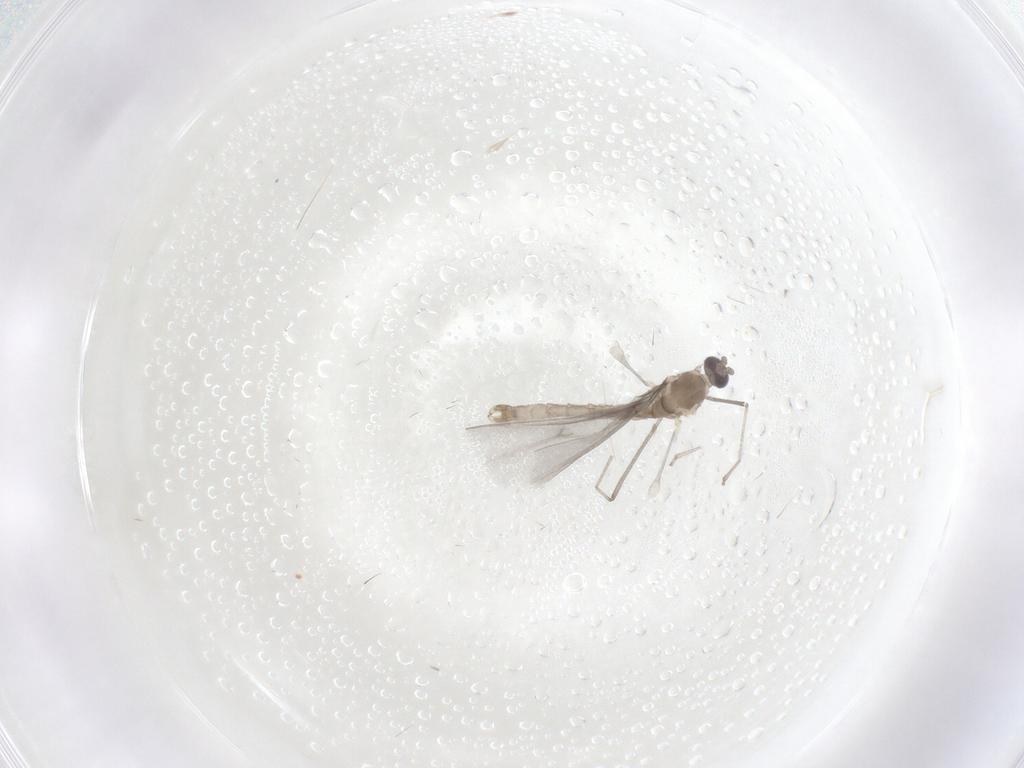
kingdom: Animalia
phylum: Arthropoda
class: Insecta
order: Diptera
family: Cecidomyiidae
